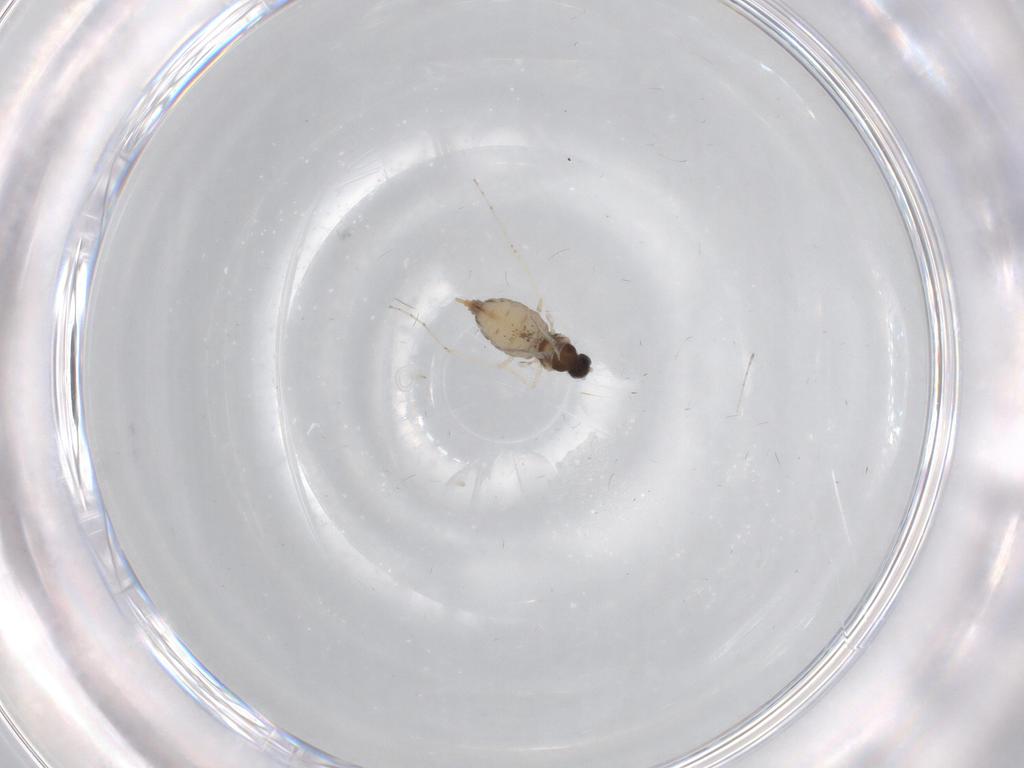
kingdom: Animalia
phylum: Arthropoda
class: Insecta
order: Diptera
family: Cecidomyiidae
